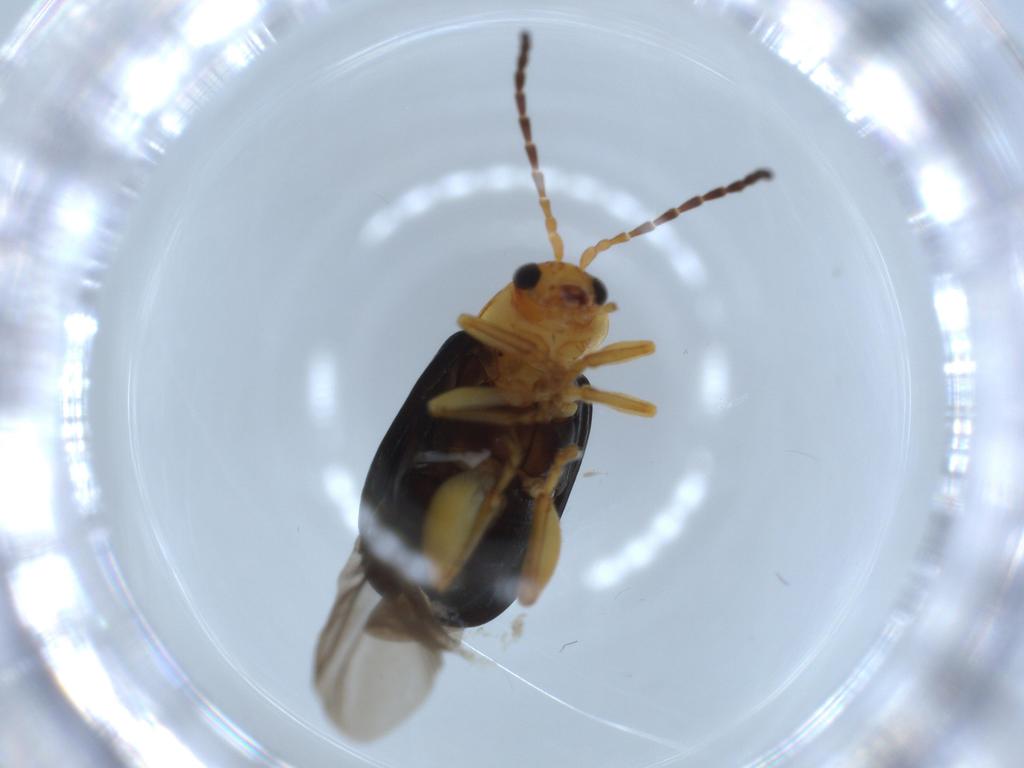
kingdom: Animalia
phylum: Arthropoda
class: Insecta
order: Coleoptera
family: Chrysomelidae
